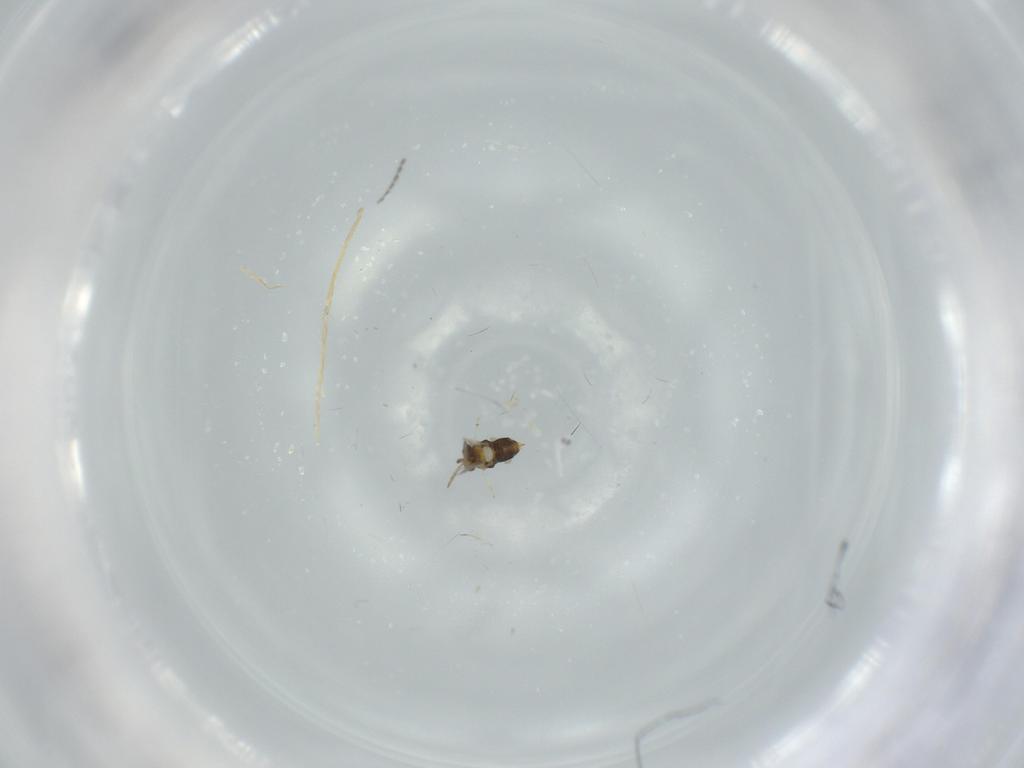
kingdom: Animalia
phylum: Arthropoda
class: Insecta
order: Hymenoptera
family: Aphelinidae
